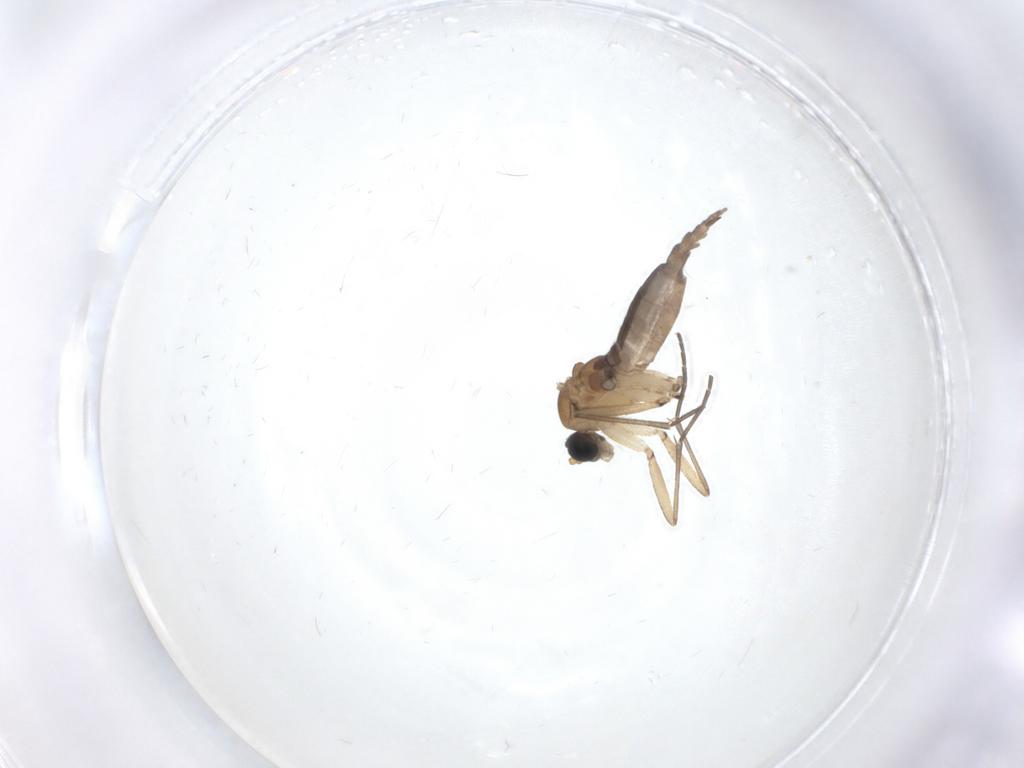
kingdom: Animalia
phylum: Arthropoda
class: Insecta
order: Diptera
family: Sciaridae
